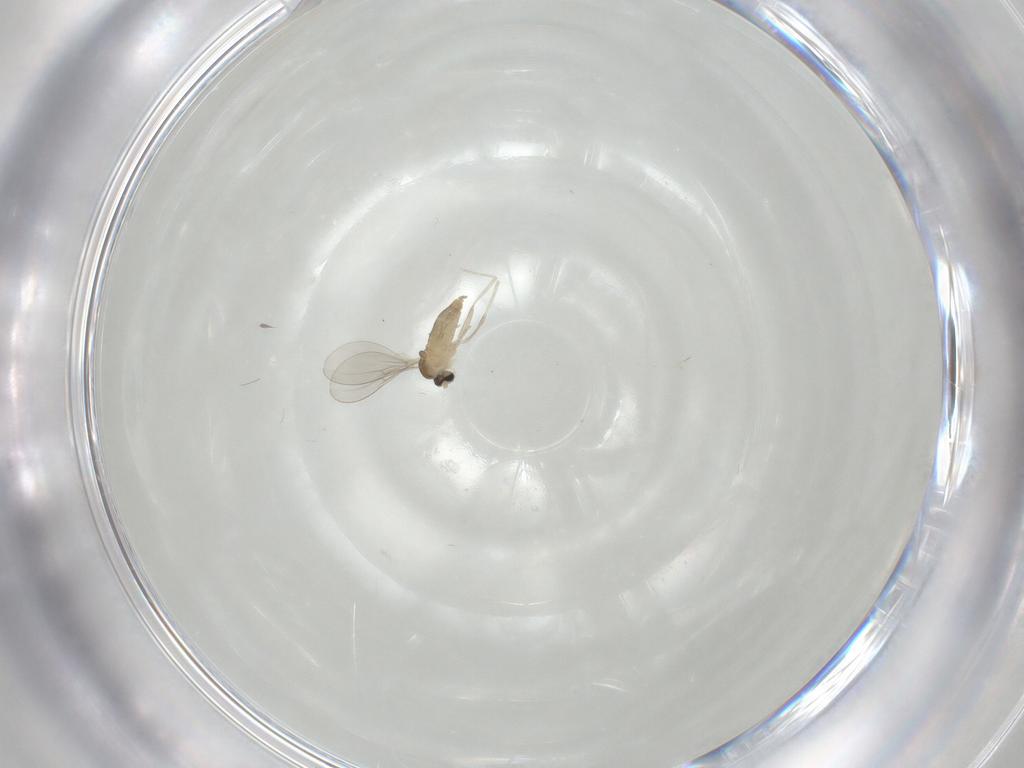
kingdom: Animalia
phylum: Arthropoda
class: Insecta
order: Diptera
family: Cecidomyiidae
